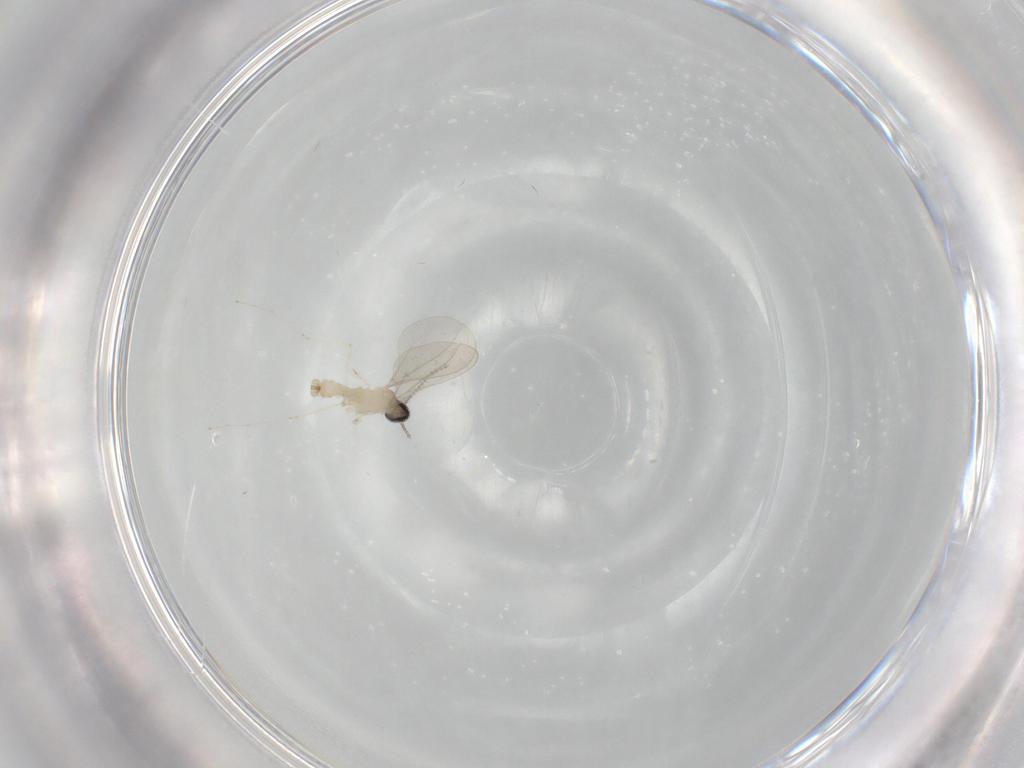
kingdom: Animalia
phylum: Arthropoda
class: Insecta
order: Diptera
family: Sciaridae
